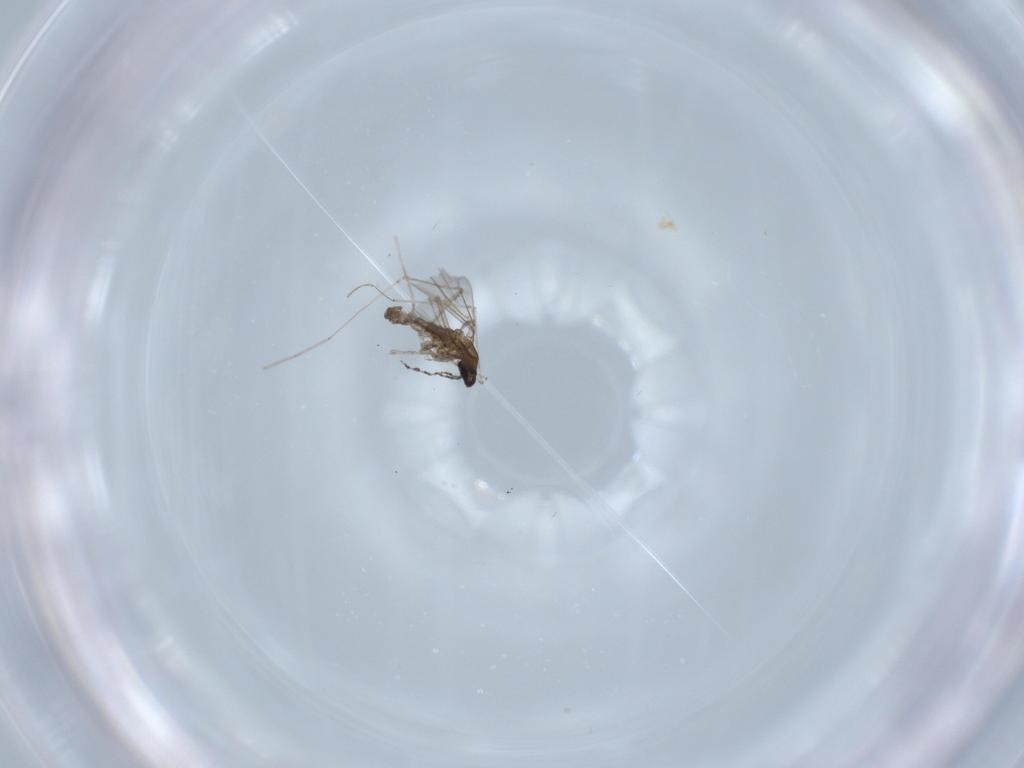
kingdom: Animalia
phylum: Arthropoda
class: Insecta
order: Diptera
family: Cecidomyiidae
